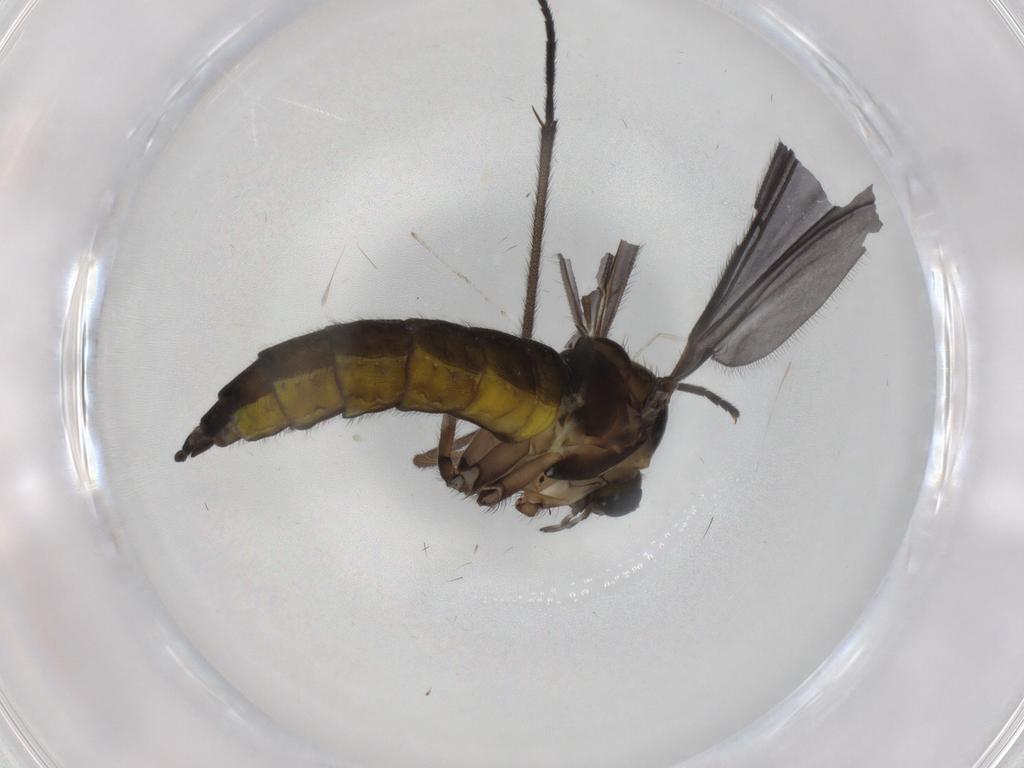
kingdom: Animalia
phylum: Arthropoda
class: Insecta
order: Diptera
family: Sciaridae
